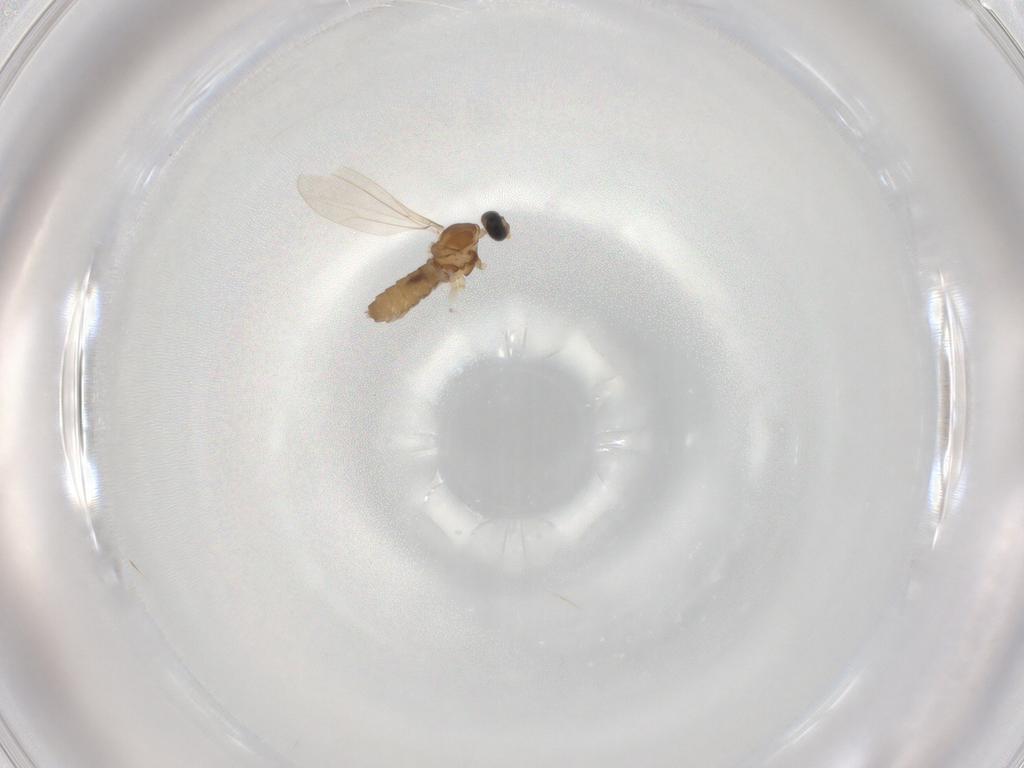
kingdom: Animalia
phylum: Arthropoda
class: Insecta
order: Diptera
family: Cecidomyiidae
